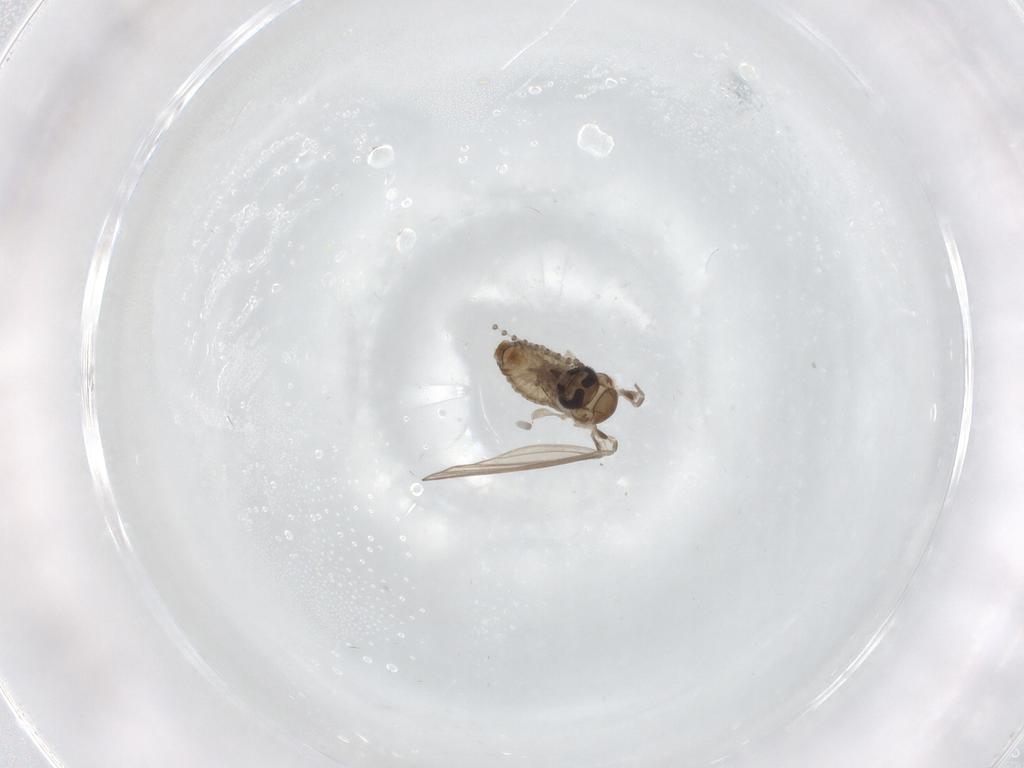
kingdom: Animalia
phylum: Arthropoda
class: Insecta
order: Diptera
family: Psychodidae
